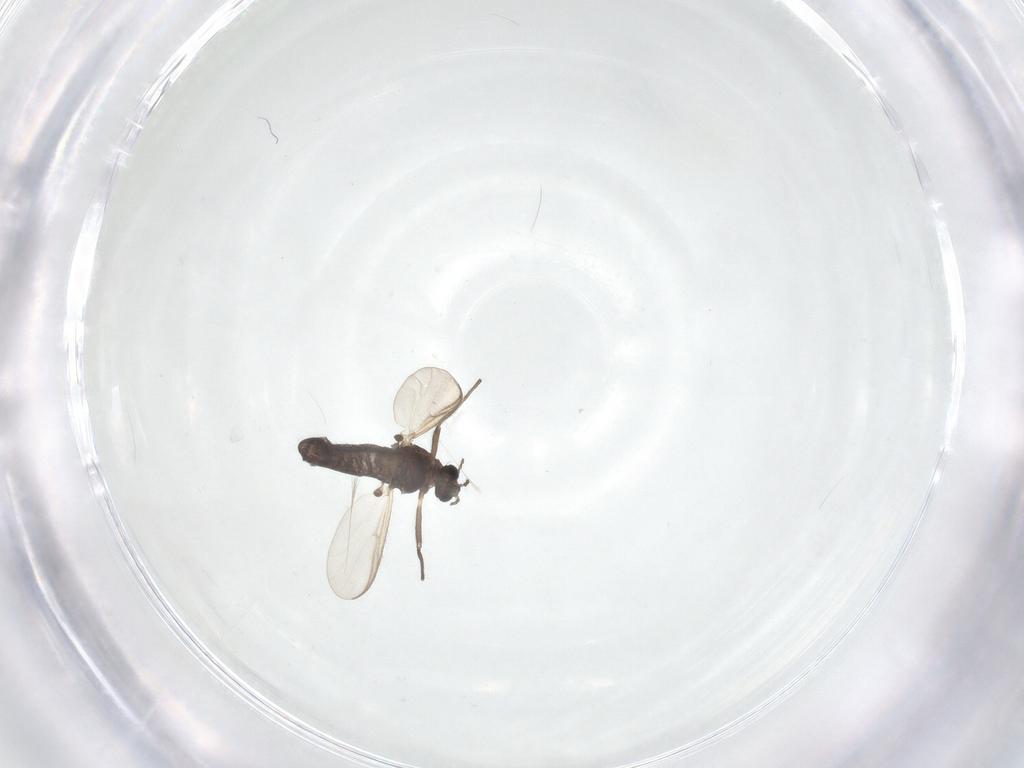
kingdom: Animalia
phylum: Arthropoda
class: Insecta
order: Diptera
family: Chironomidae
